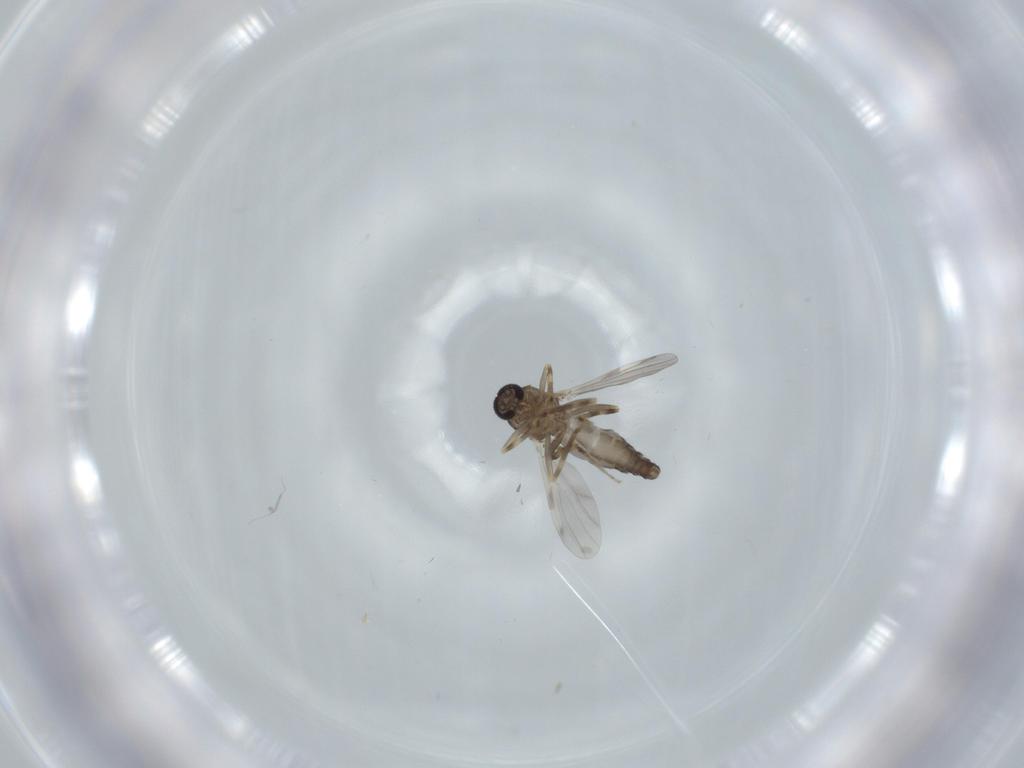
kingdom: Animalia
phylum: Arthropoda
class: Insecta
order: Diptera
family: Ceratopogonidae
